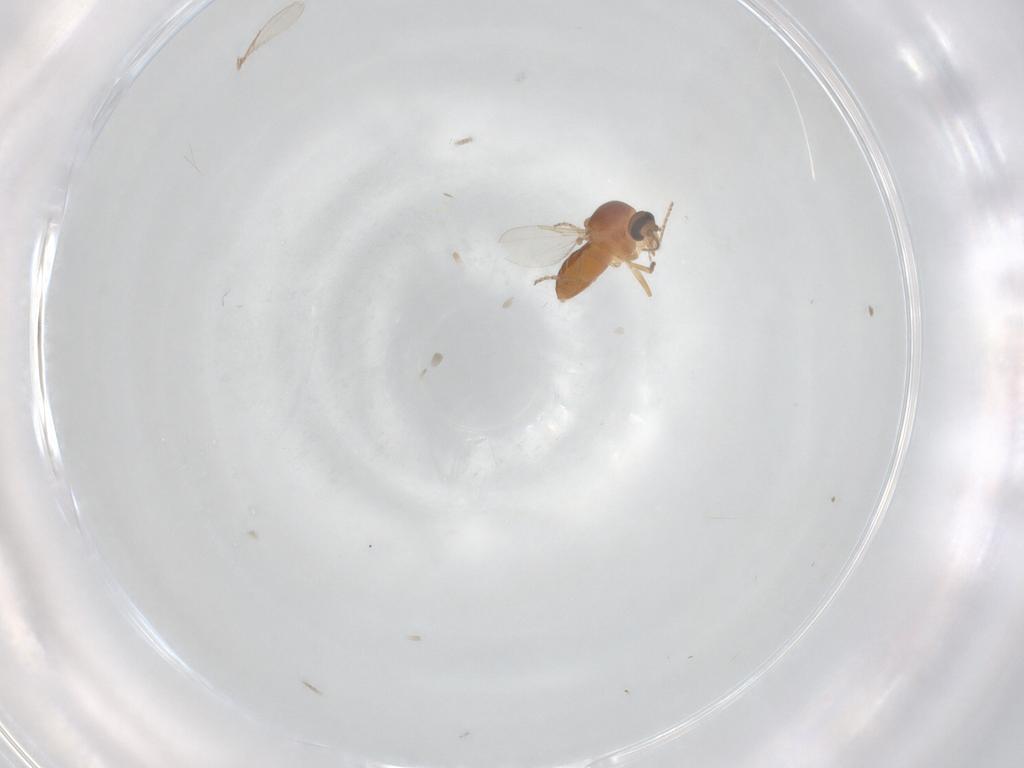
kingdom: Animalia
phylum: Arthropoda
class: Insecta
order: Diptera
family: Ceratopogonidae
